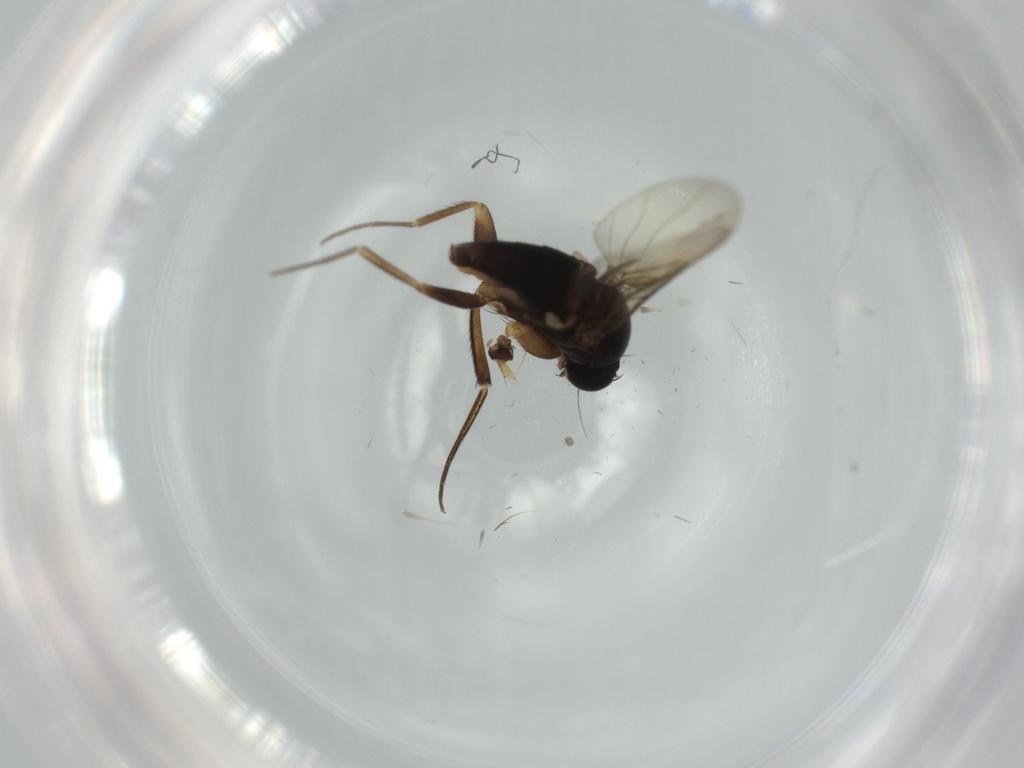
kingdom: Animalia
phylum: Arthropoda
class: Insecta
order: Diptera
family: Phoridae
